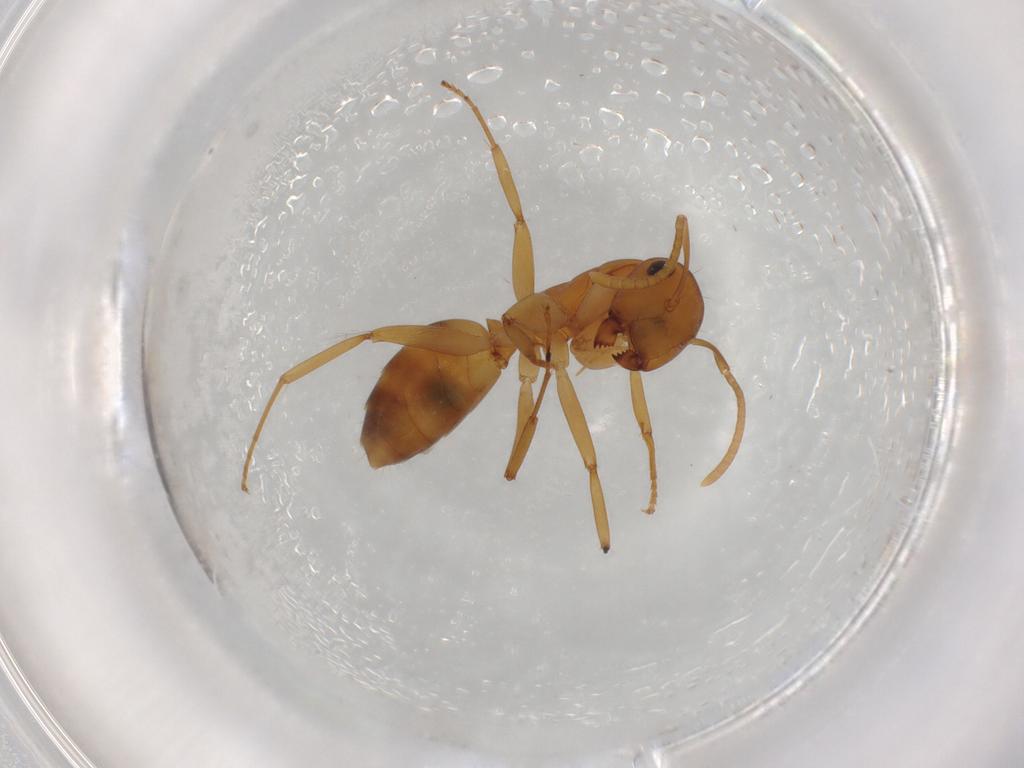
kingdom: Animalia
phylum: Arthropoda
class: Insecta
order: Hymenoptera
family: Formicidae
